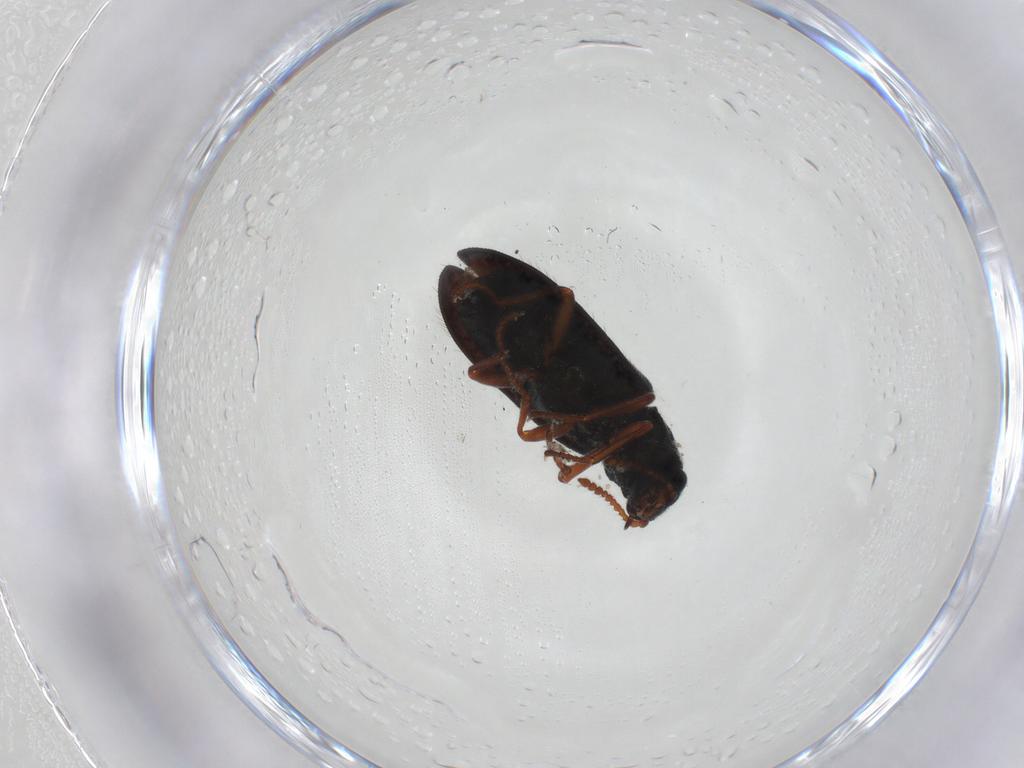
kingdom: Animalia
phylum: Arthropoda
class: Insecta
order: Coleoptera
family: Melyridae
